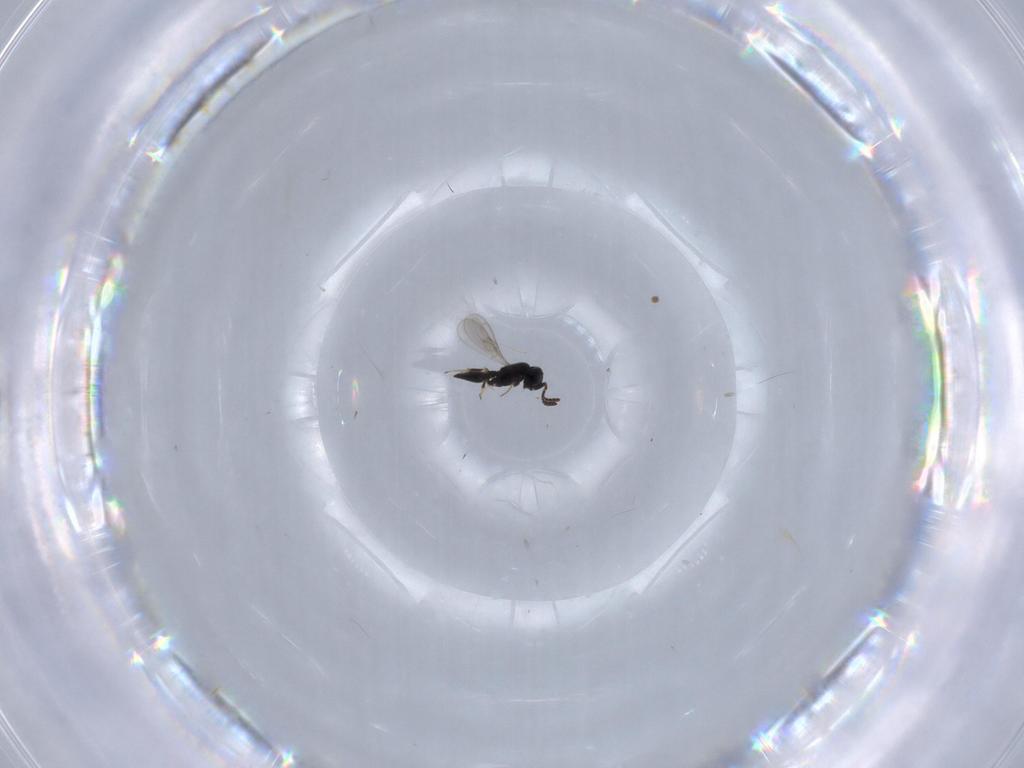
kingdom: Animalia
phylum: Arthropoda
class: Insecta
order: Hymenoptera
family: Scelionidae
